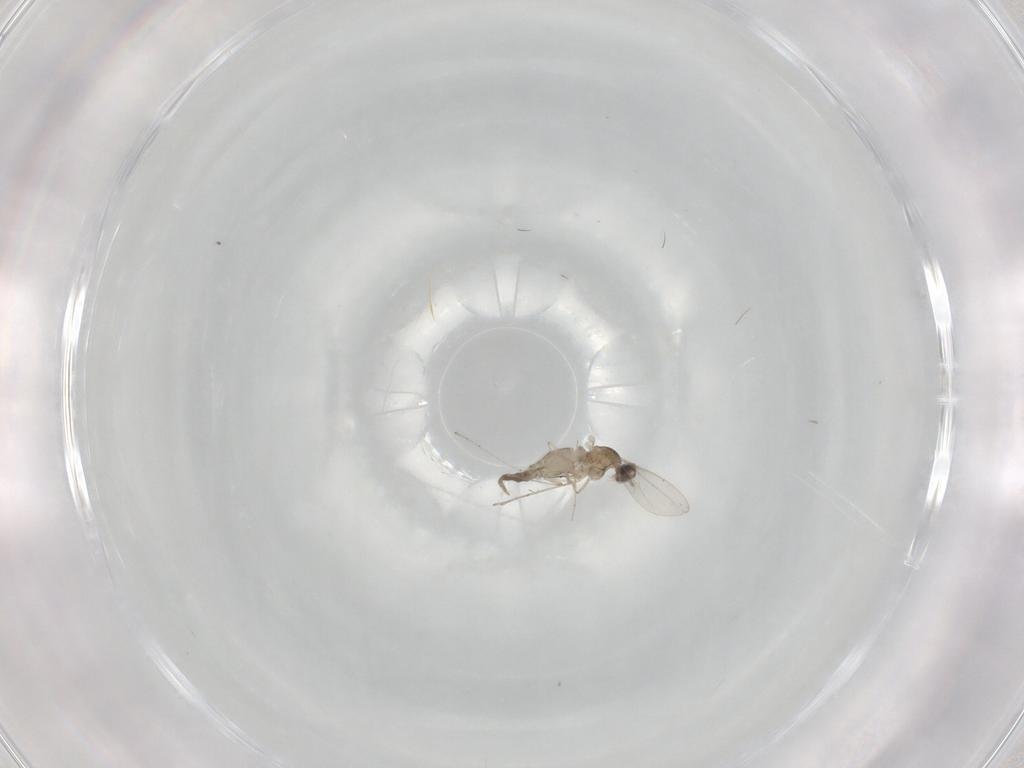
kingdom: Animalia
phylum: Arthropoda
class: Insecta
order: Diptera
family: Cecidomyiidae
